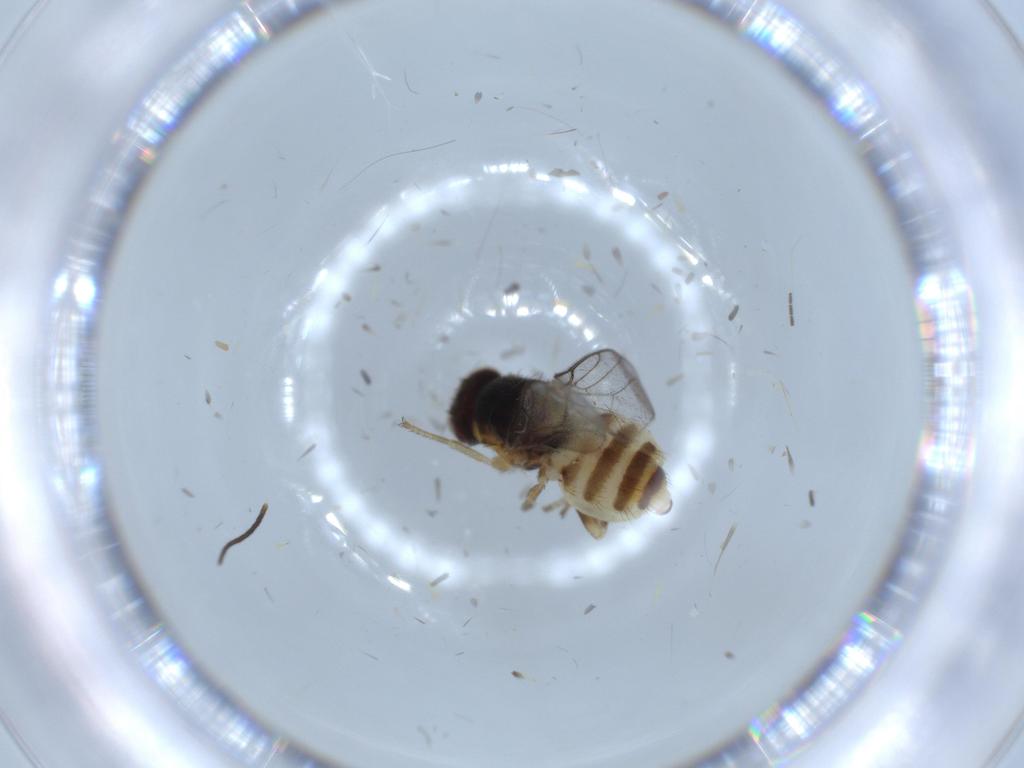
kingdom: Animalia
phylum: Arthropoda
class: Insecta
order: Diptera
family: Chloropidae
